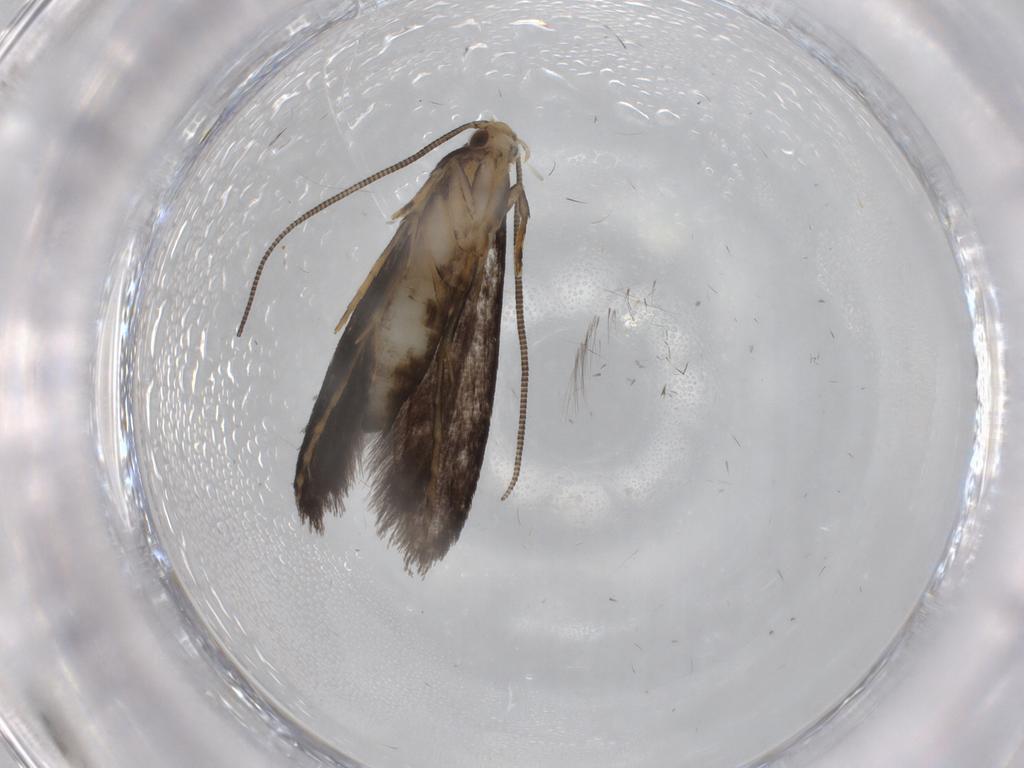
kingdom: Animalia
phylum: Arthropoda
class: Insecta
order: Lepidoptera
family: Tineidae
